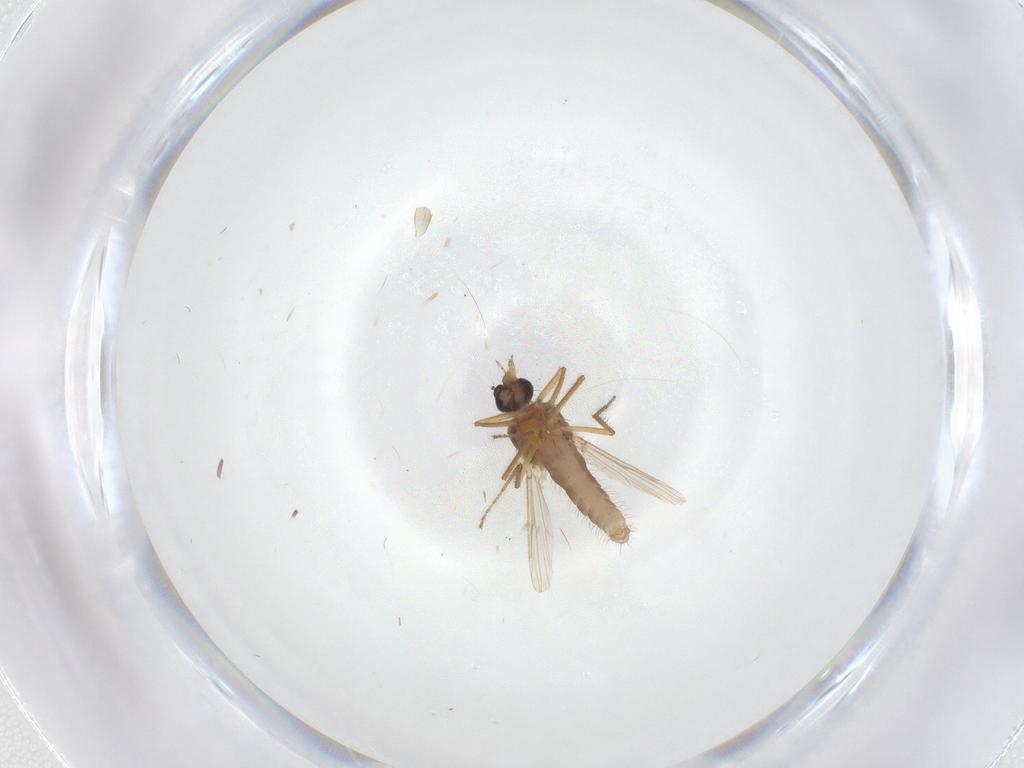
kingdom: Animalia
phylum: Arthropoda
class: Insecta
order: Diptera
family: Ceratopogonidae
